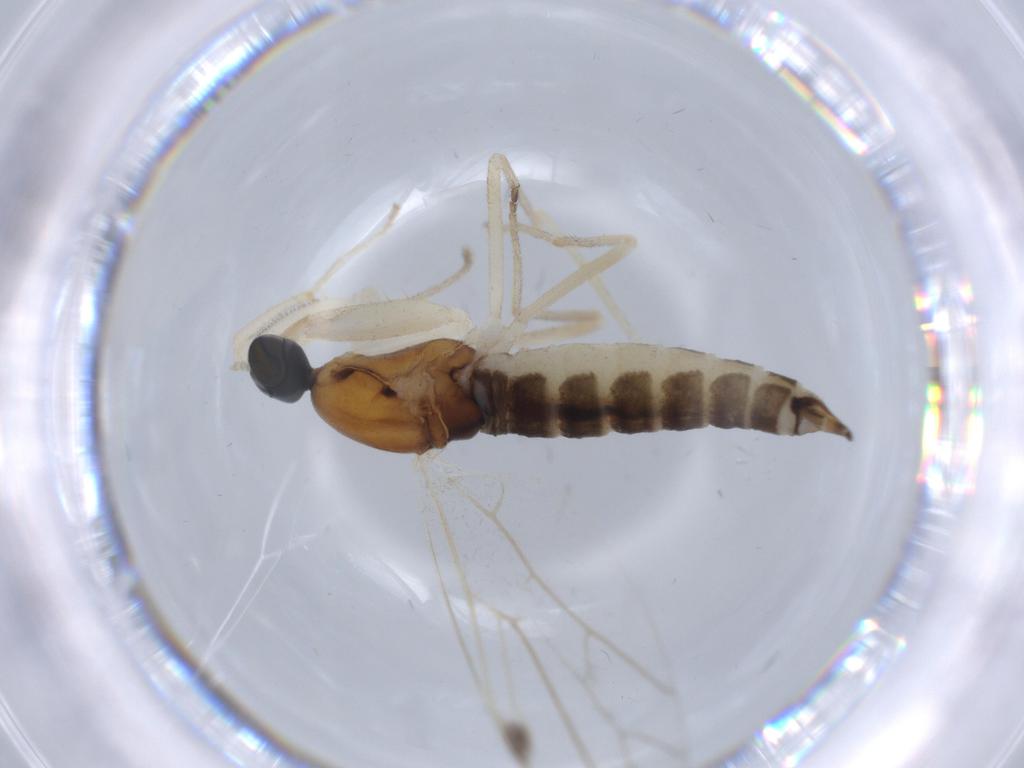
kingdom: Animalia
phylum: Arthropoda
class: Insecta
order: Diptera
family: Empididae
